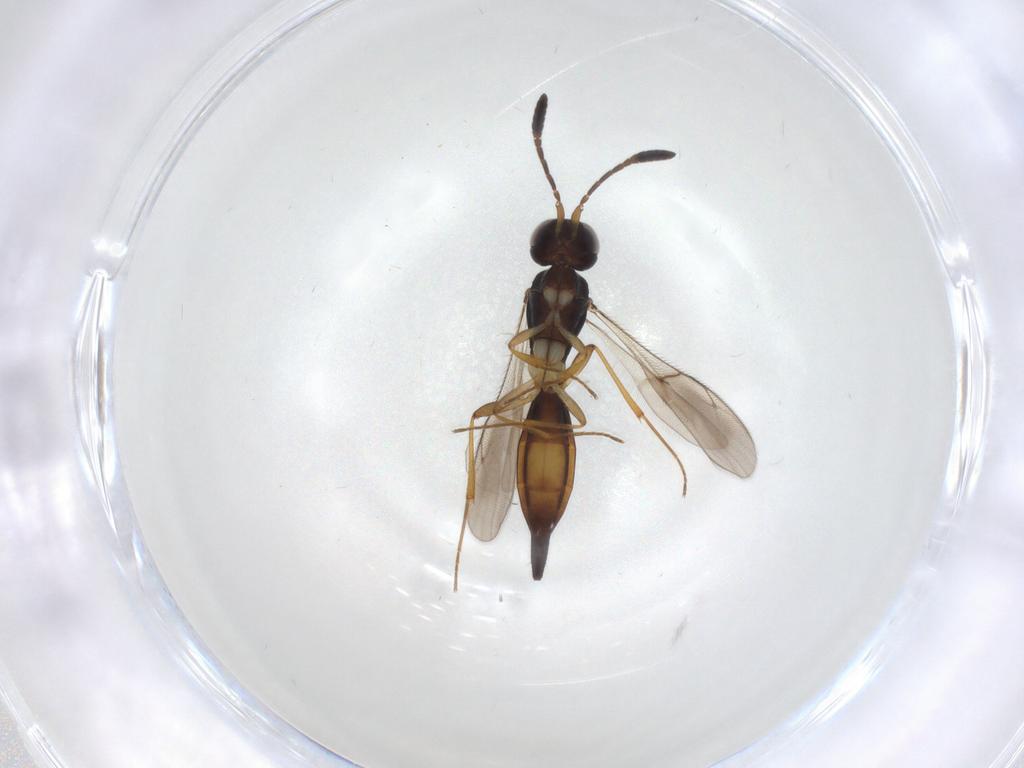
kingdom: Animalia
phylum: Arthropoda
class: Insecta
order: Hymenoptera
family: Scelionidae
